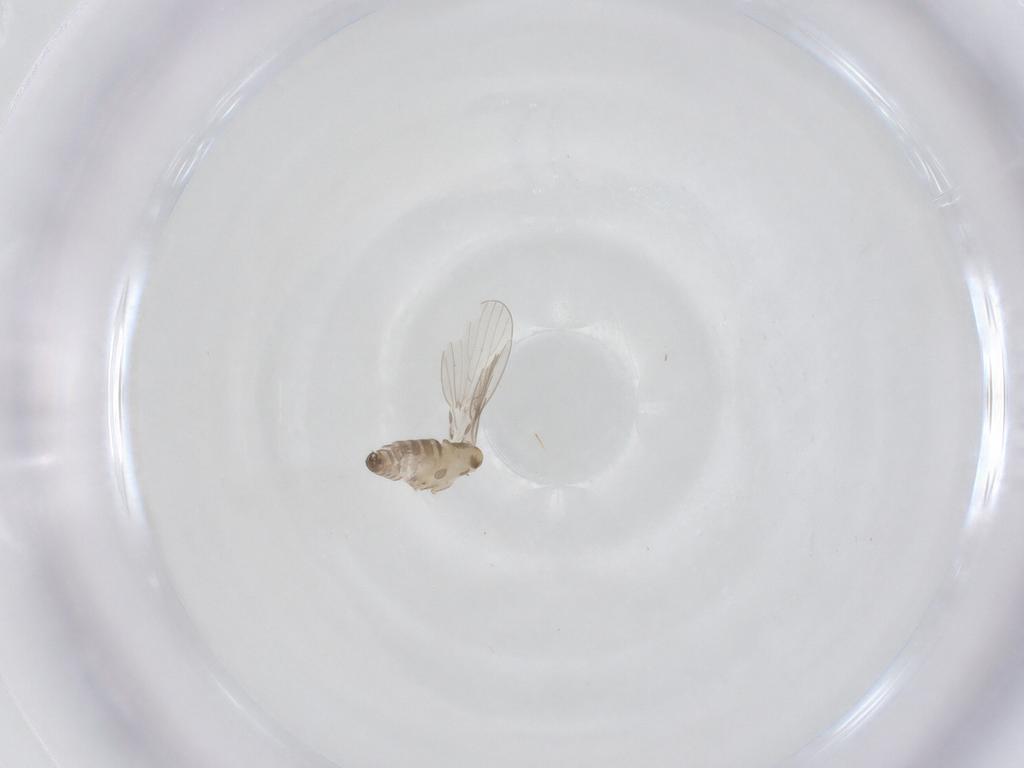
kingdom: Animalia
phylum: Arthropoda
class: Insecta
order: Diptera
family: Psychodidae
